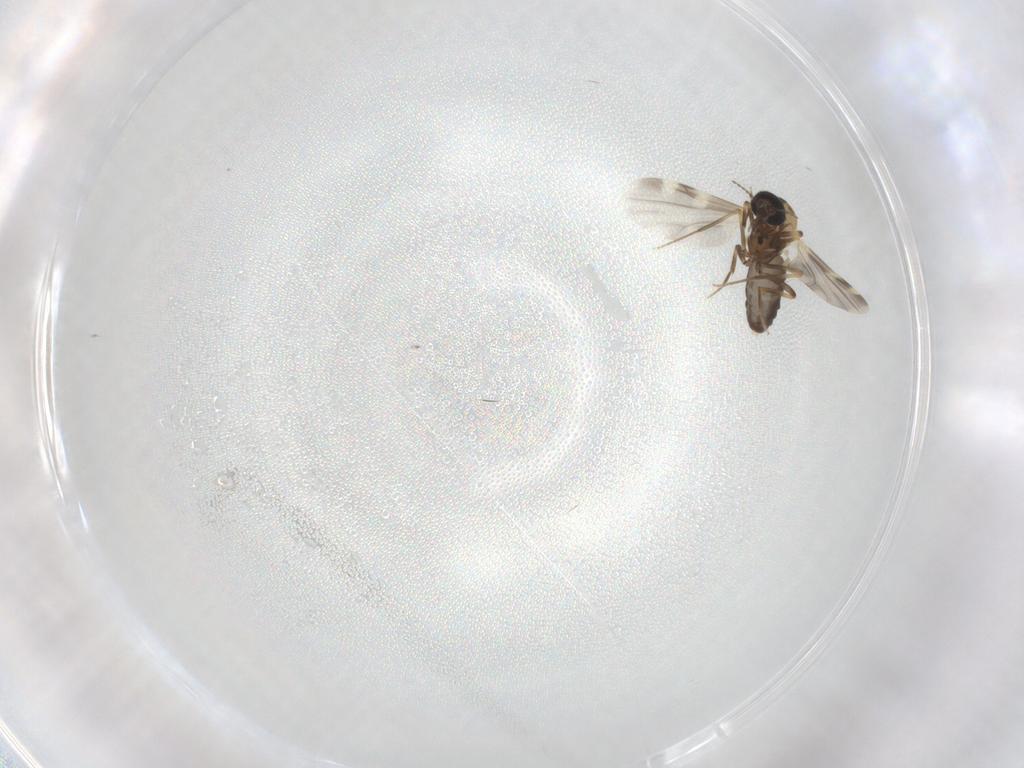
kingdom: Animalia
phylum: Arthropoda
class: Insecta
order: Diptera
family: Ceratopogonidae
